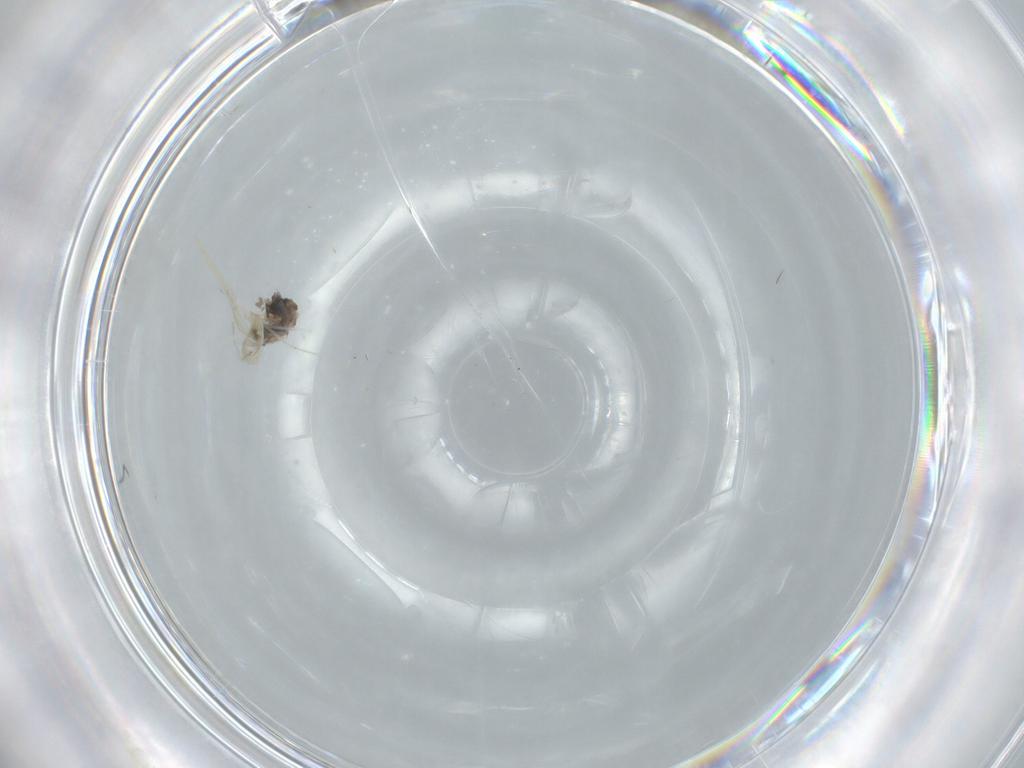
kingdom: Animalia
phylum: Arthropoda
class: Insecta
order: Diptera
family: Cecidomyiidae
